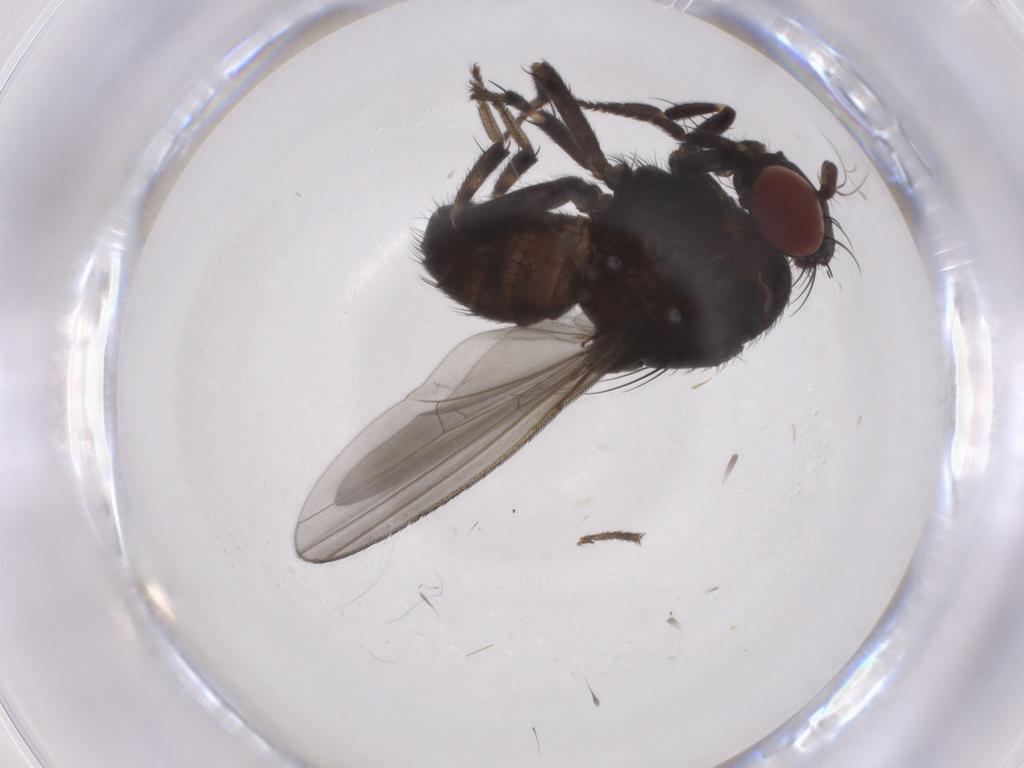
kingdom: Animalia
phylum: Arthropoda
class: Insecta
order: Diptera
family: Lauxaniidae
